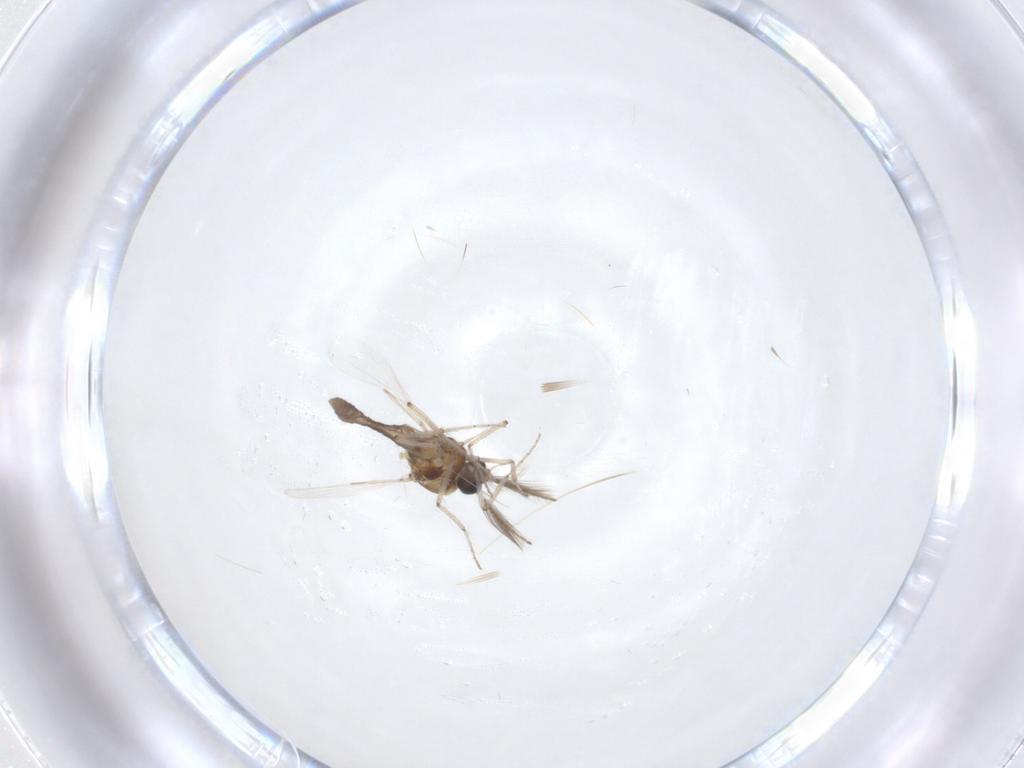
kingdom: Animalia
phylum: Arthropoda
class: Insecta
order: Diptera
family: Ceratopogonidae
